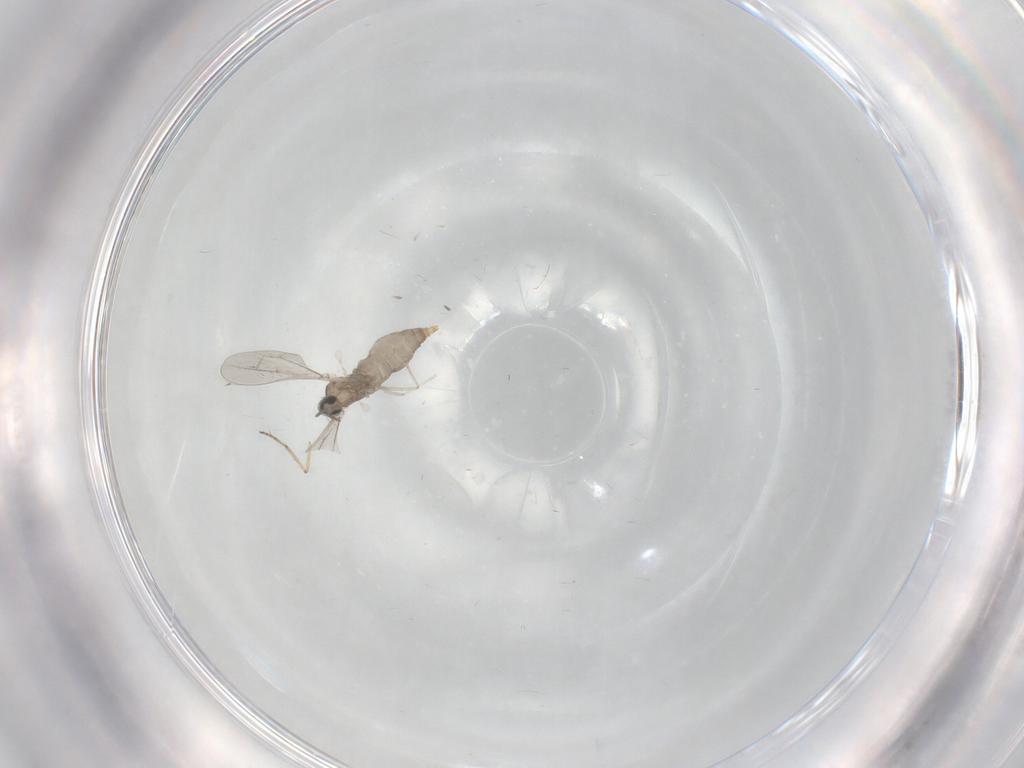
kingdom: Animalia
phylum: Arthropoda
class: Insecta
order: Diptera
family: Cecidomyiidae
